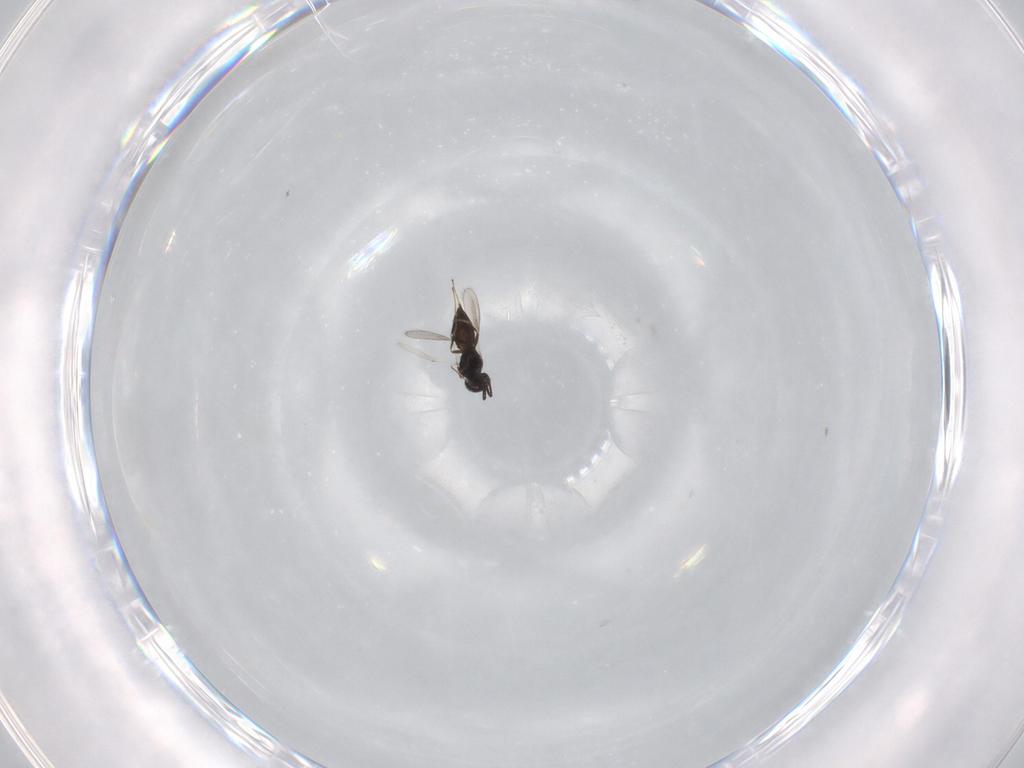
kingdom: Animalia
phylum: Arthropoda
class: Insecta
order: Hymenoptera
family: Scelionidae
